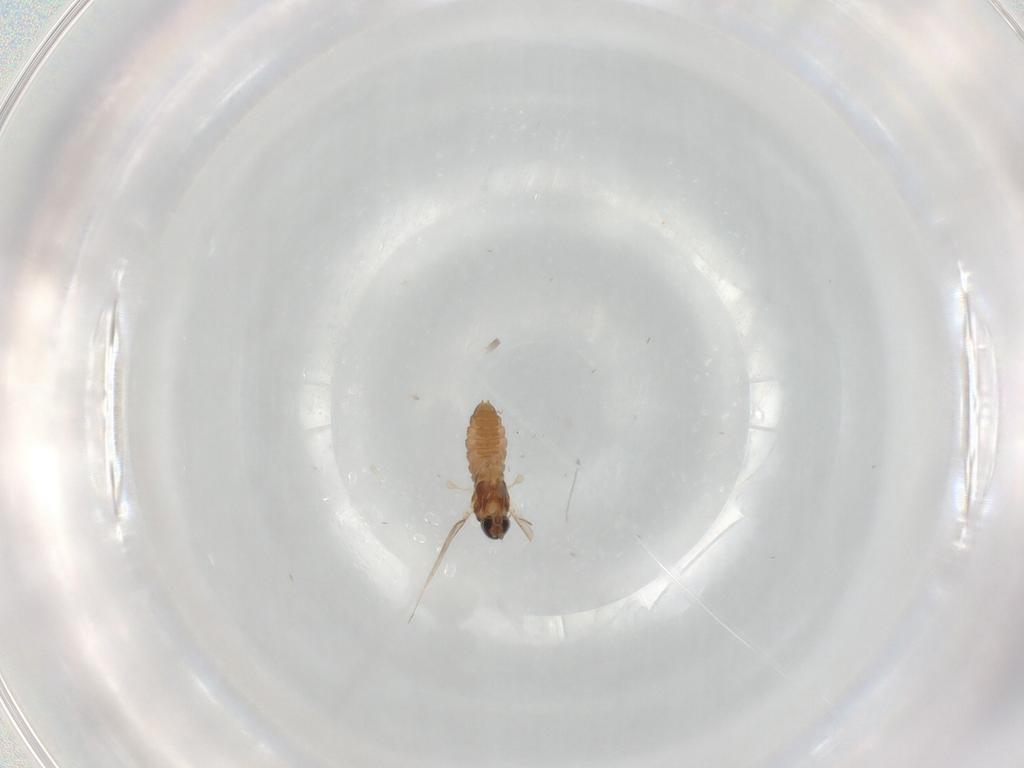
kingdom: Animalia
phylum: Arthropoda
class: Insecta
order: Diptera
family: Cecidomyiidae
